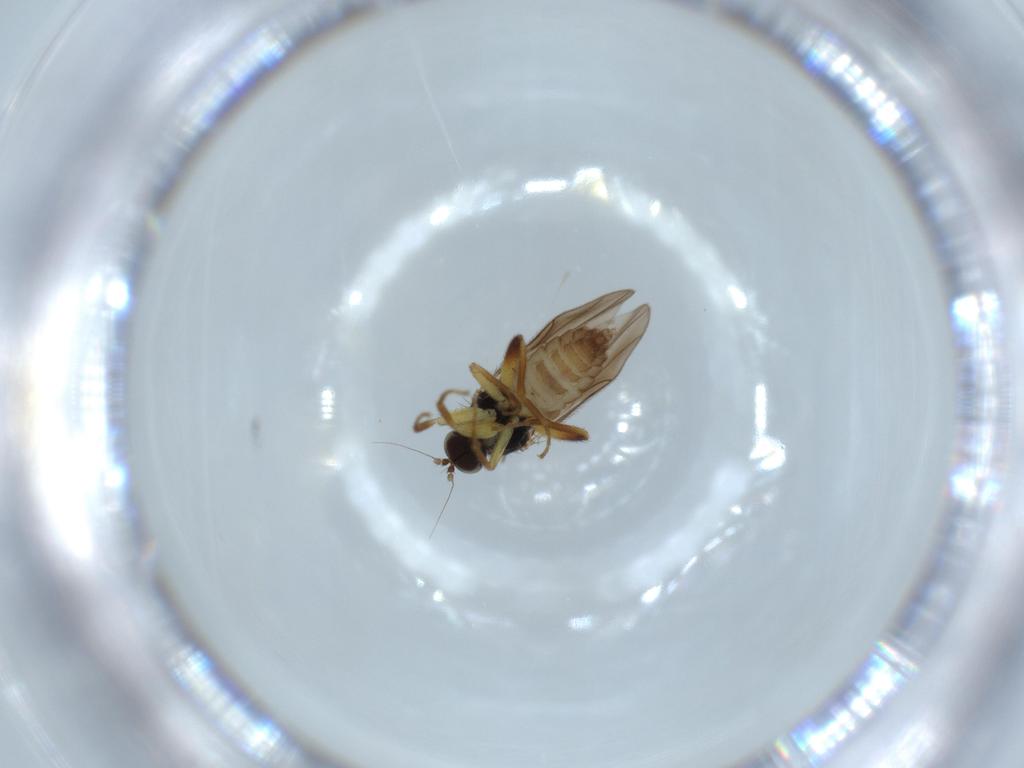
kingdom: Animalia
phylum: Arthropoda
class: Insecta
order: Diptera
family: Hybotidae
